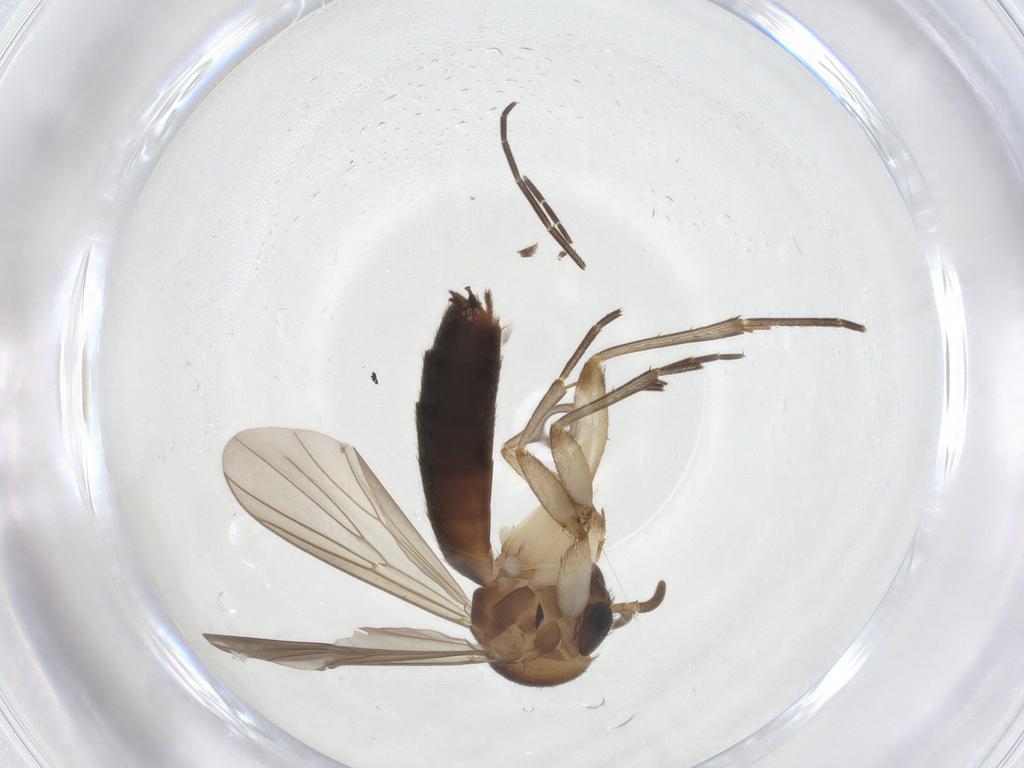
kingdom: Animalia
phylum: Arthropoda
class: Insecta
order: Diptera
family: Mycetophilidae
